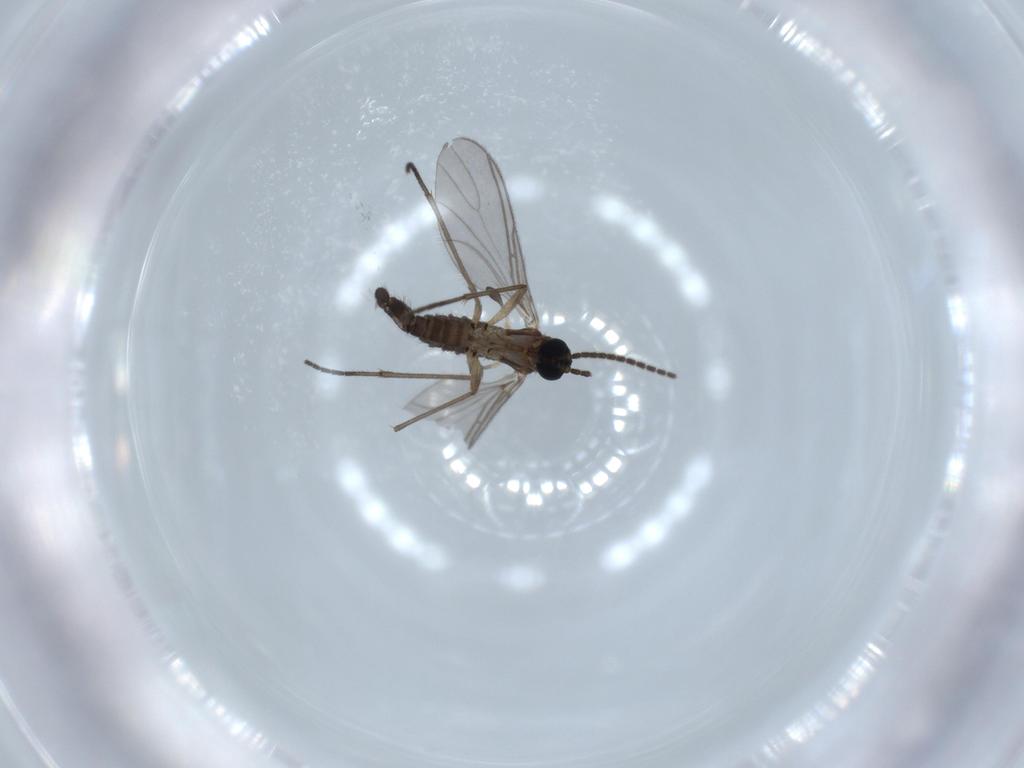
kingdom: Animalia
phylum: Arthropoda
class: Insecta
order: Diptera
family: Sciaridae
